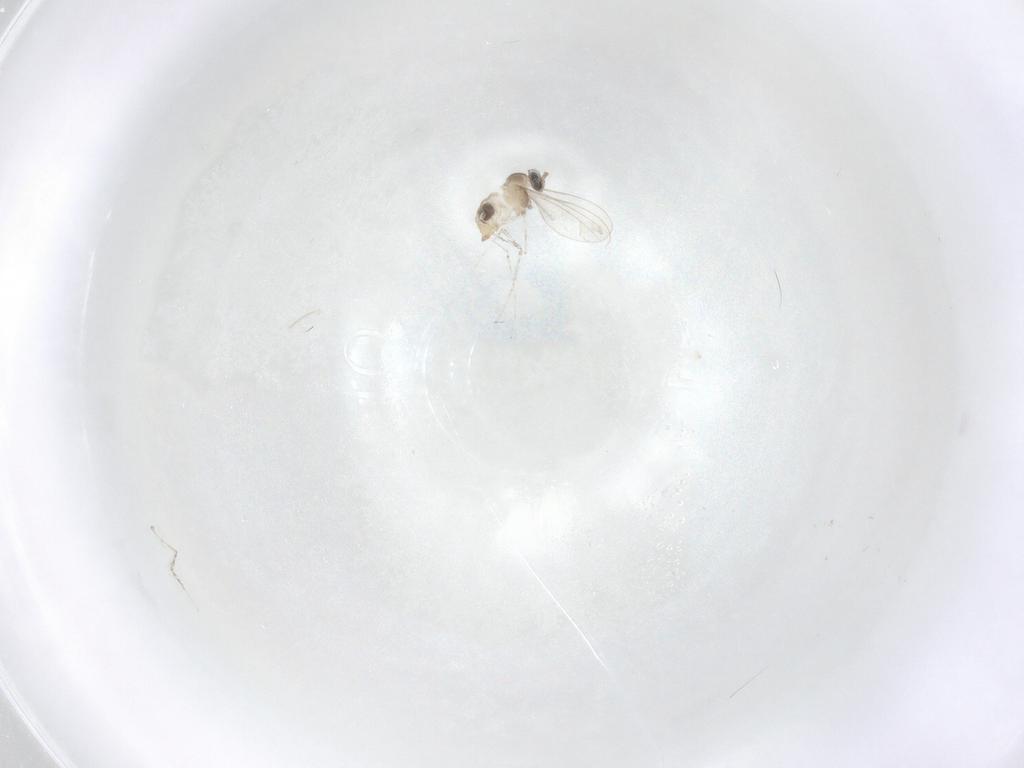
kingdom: Animalia
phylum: Arthropoda
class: Insecta
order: Diptera
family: Cecidomyiidae
